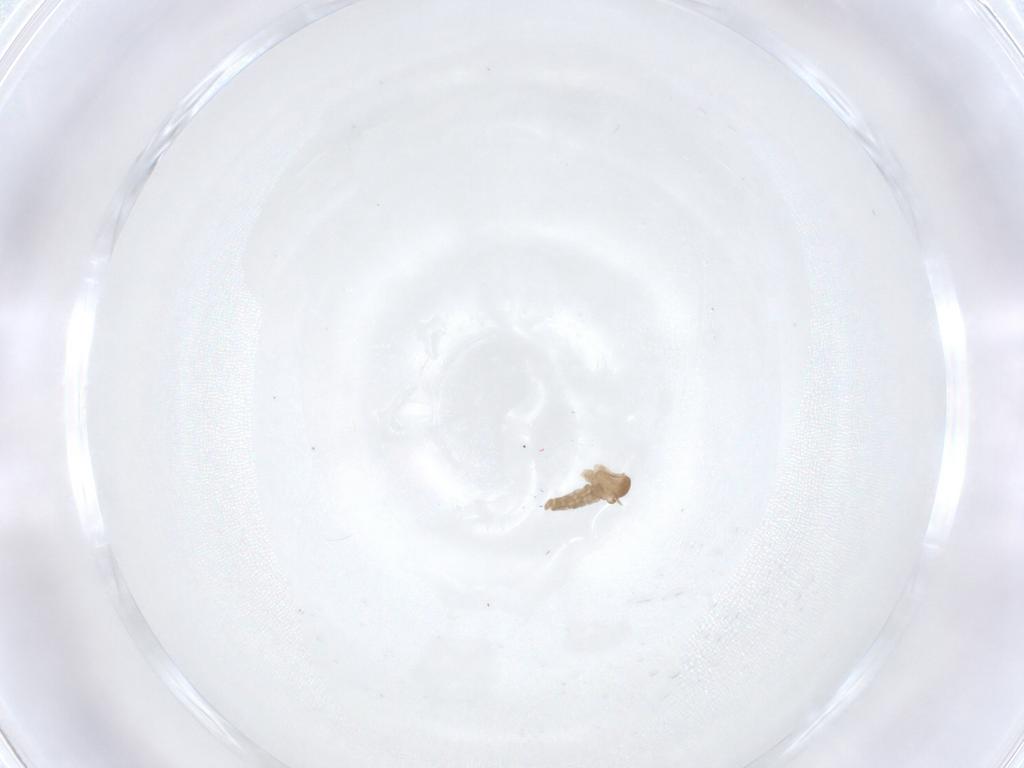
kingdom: Animalia
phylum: Arthropoda
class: Insecta
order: Diptera
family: Cecidomyiidae
